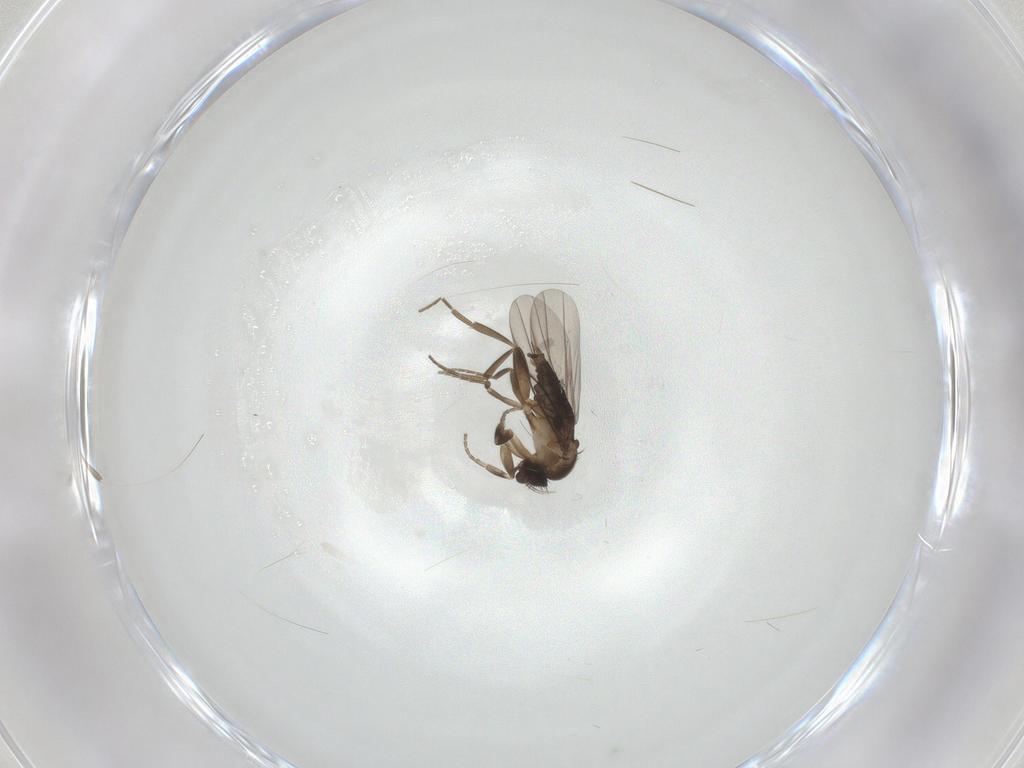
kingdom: Animalia
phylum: Arthropoda
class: Insecta
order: Diptera
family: Phoridae
